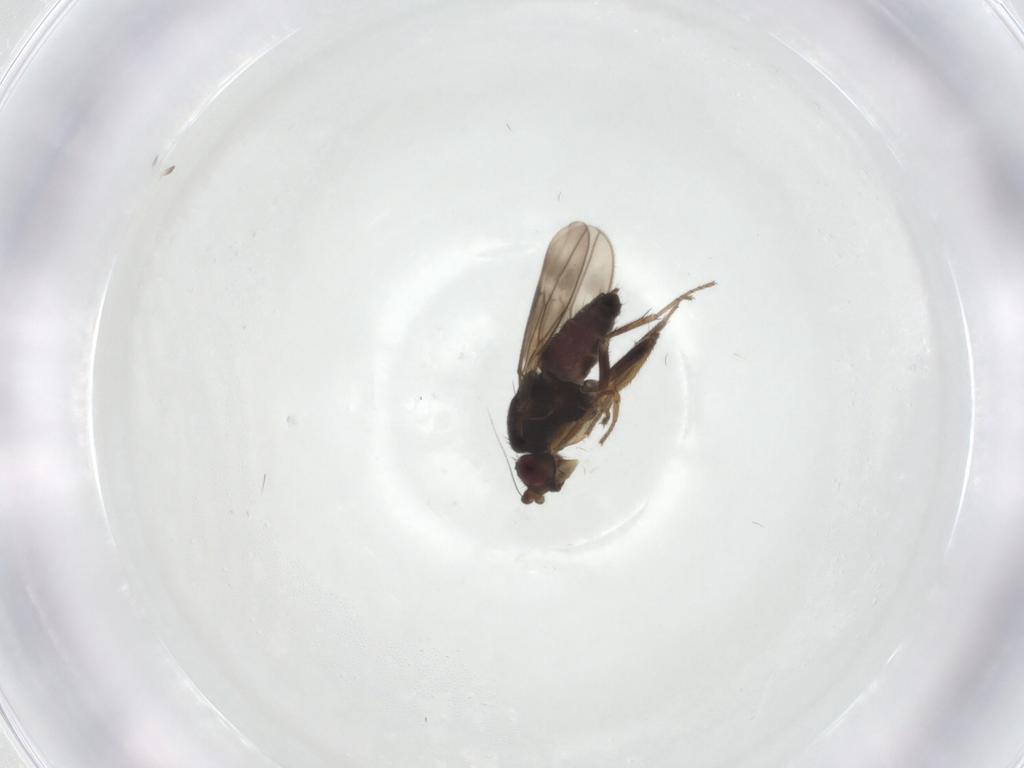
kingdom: Animalia
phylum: Arthropoda
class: Insecta
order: Diptera
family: Sphaeroceridae
